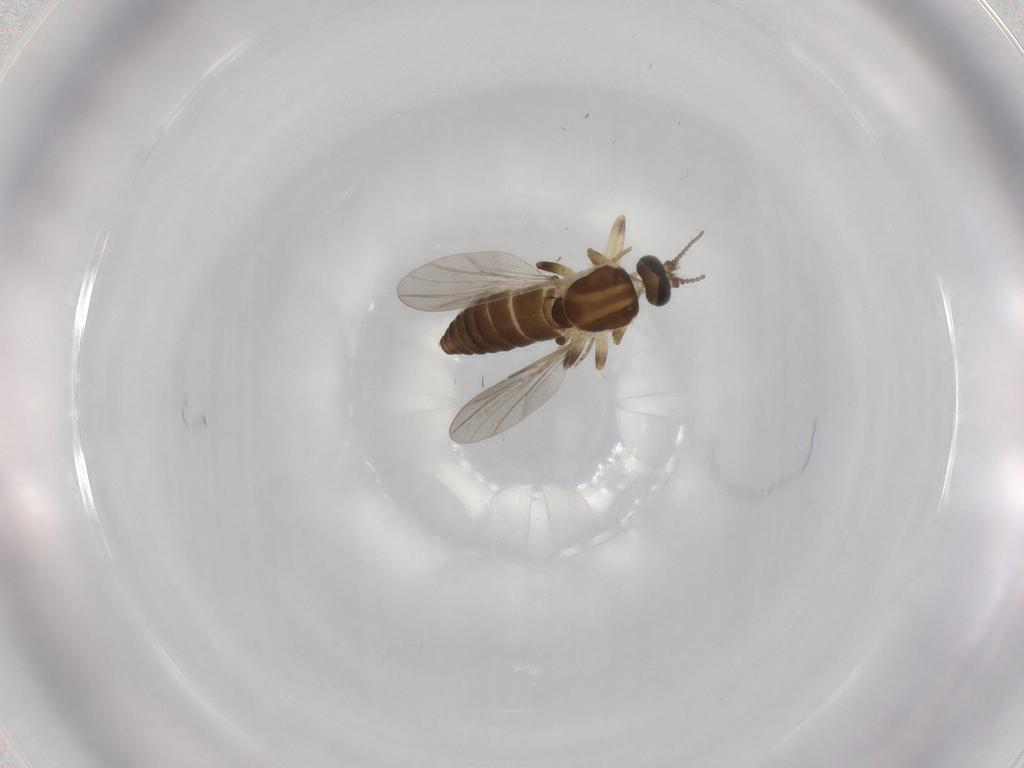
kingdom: Animalia
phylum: Arthropoda
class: Insecta
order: Diptera
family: Ceratopogonidae
